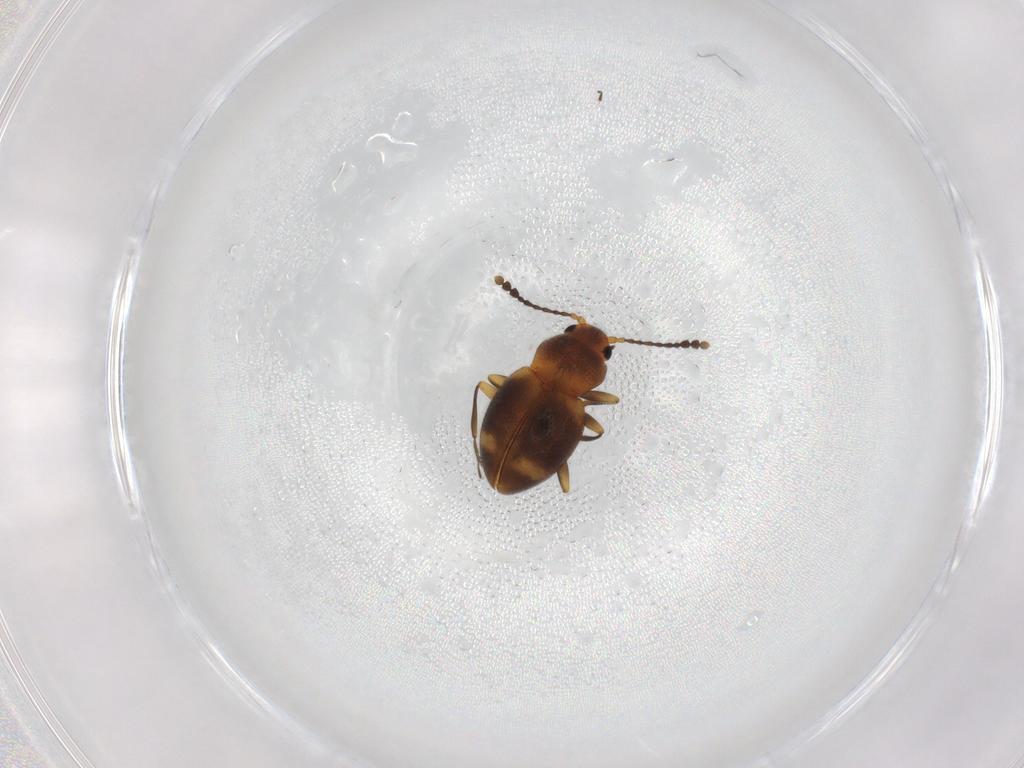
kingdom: Animalia
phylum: Arthropoda
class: Insecta
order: Coleoptera
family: Erotylidae
